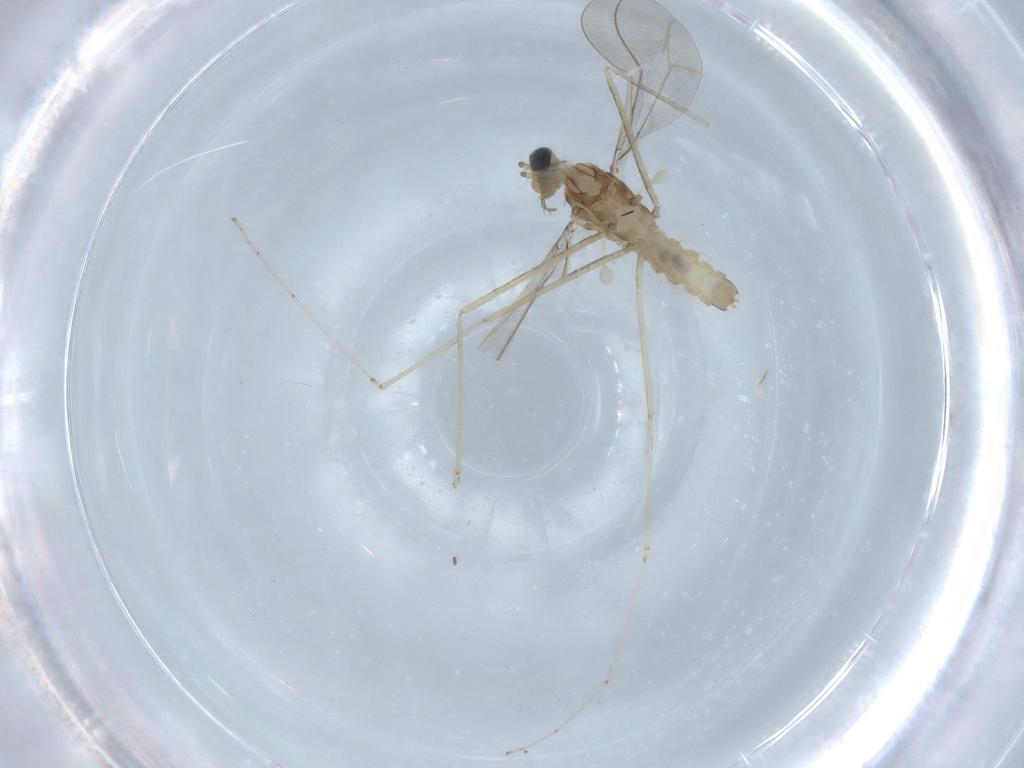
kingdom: Animalia
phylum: Arthropoda
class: Insecta
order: Diptera
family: Cecidomyiidae
